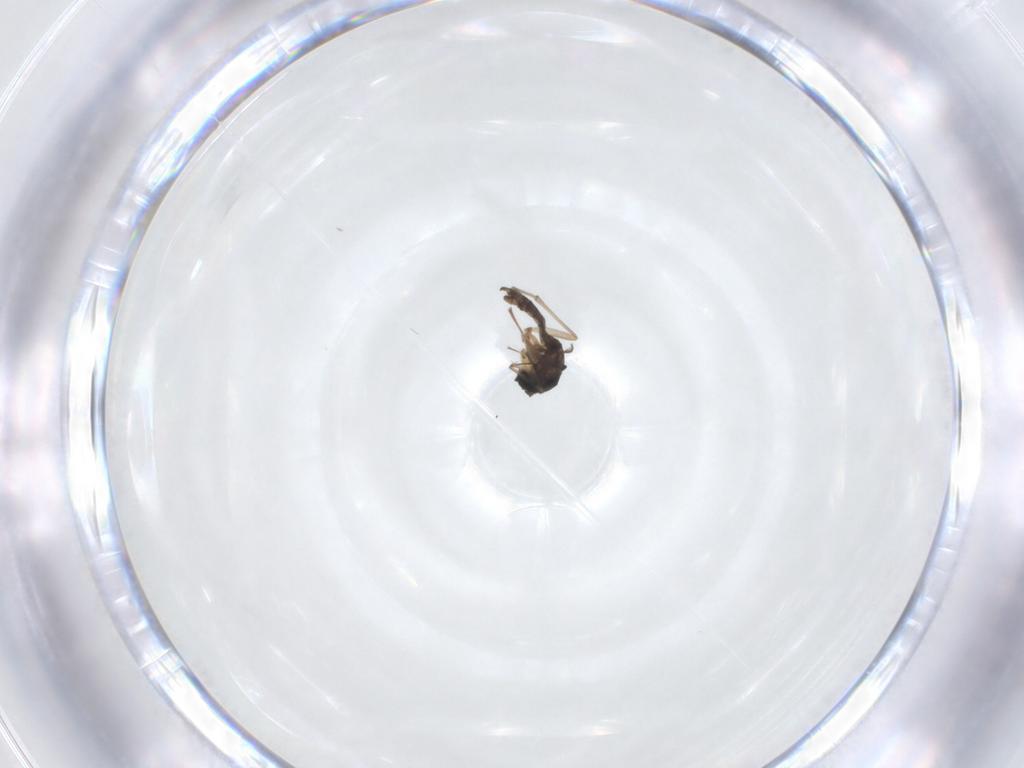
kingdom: Animalia
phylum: Arthropoda
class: Insecta
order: Diptera
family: Sciaridae
